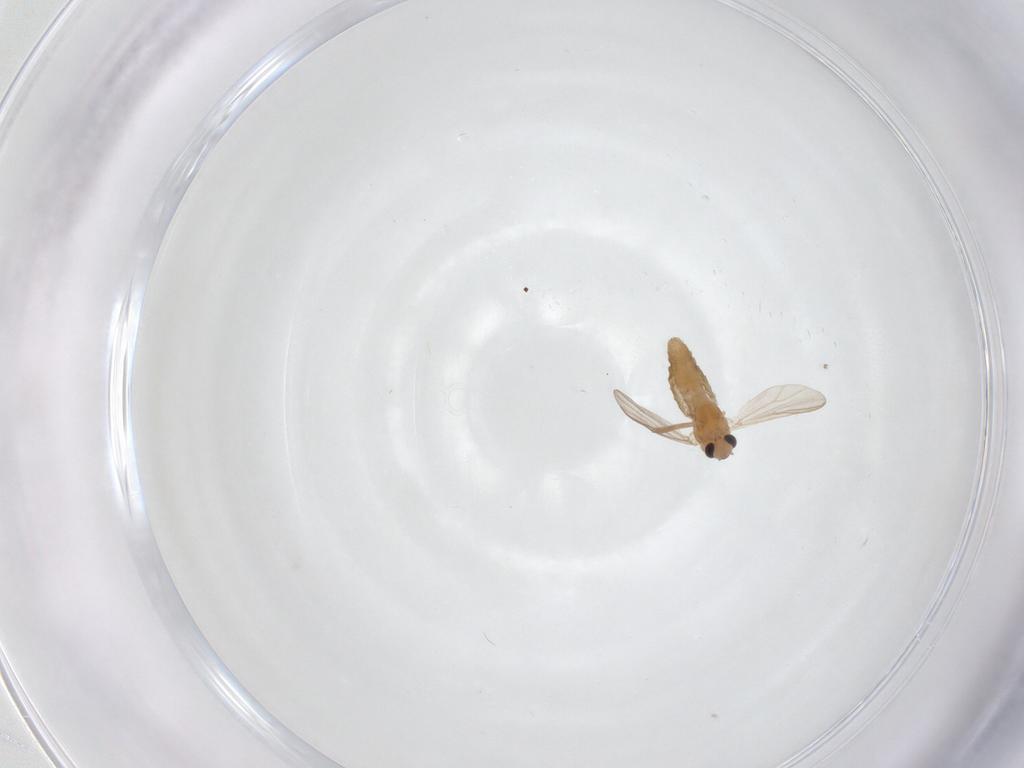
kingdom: Animalia
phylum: Arthropoda
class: Insecta
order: Diptera
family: Chironomidae
